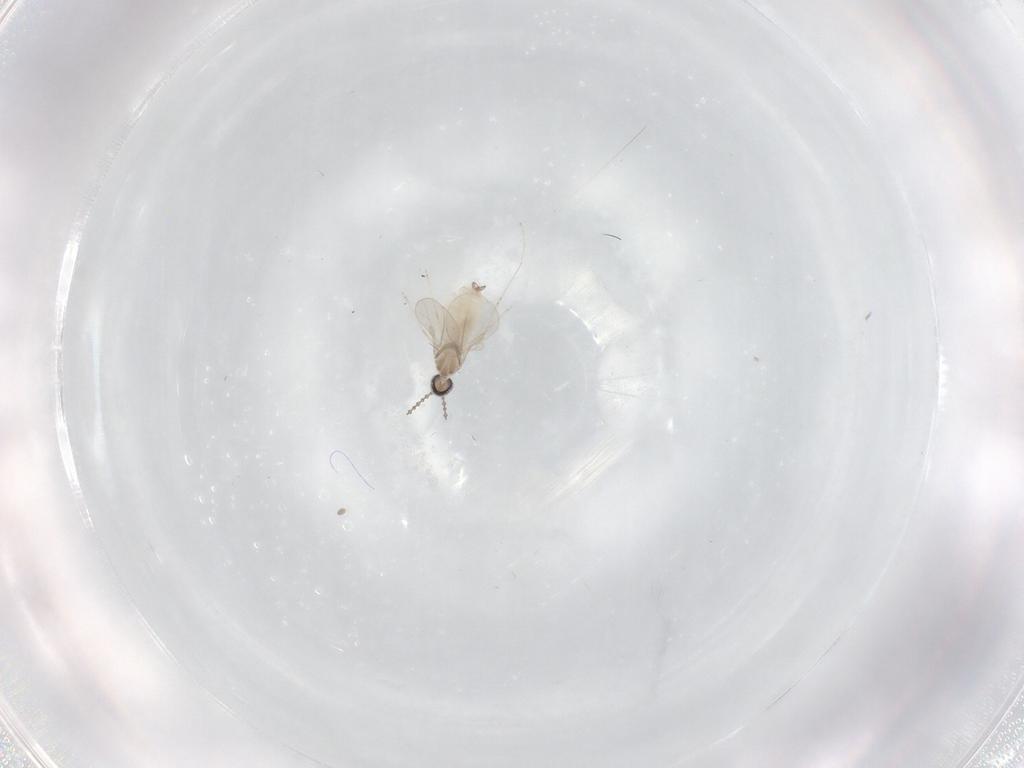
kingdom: Animalia
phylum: Arthropoda
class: Insecta
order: Diptera
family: Cecidomyiidae
